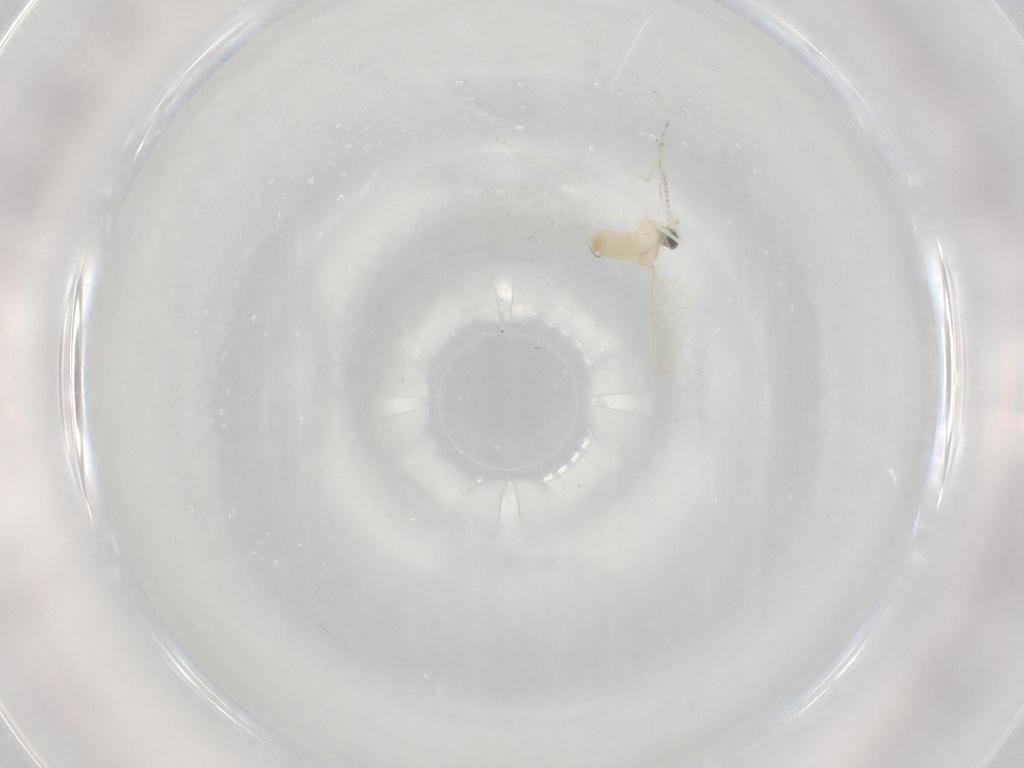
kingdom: Animalia
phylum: Arthropoda
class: Insecta
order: Diptera
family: Cecidomyiidae
